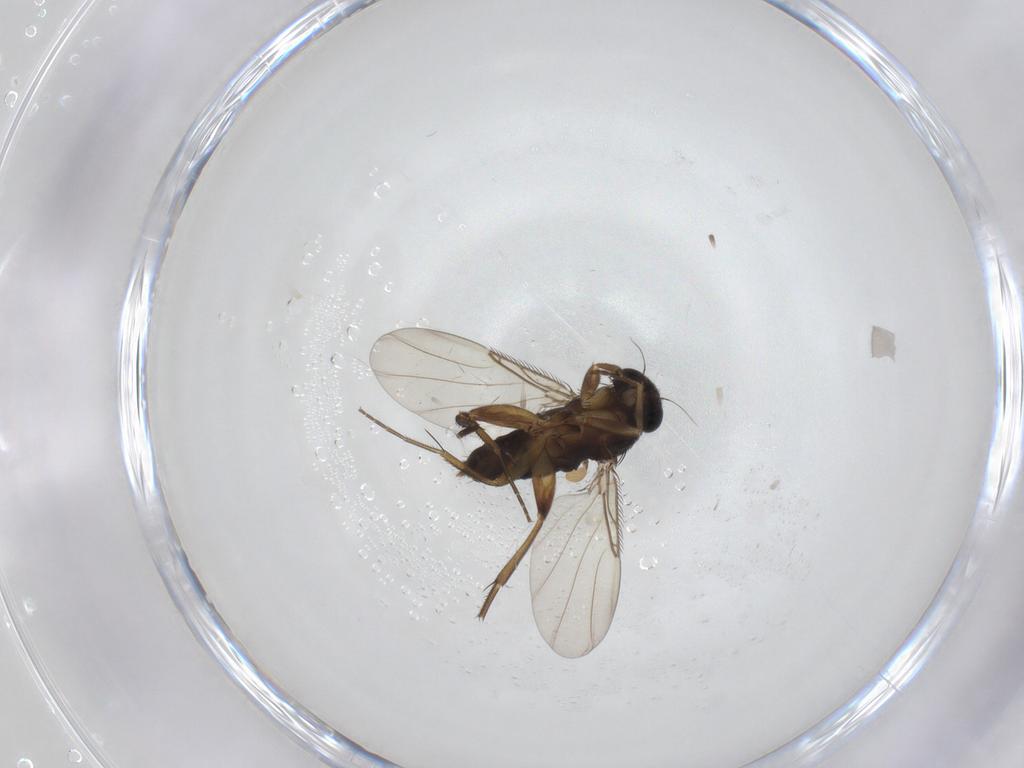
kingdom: Animalia
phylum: Arthropoda
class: Insecta
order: Diptera
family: Phoridae
